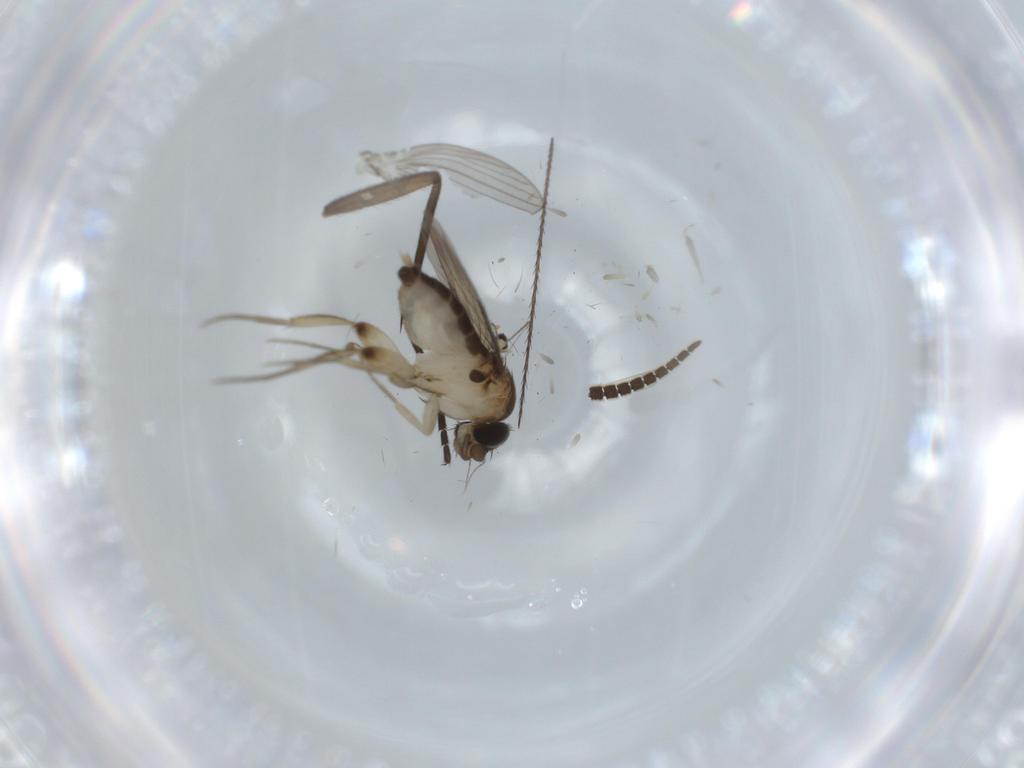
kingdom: Animalia
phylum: Arthropoda
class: Insecta
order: Diptera
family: Phoridae
